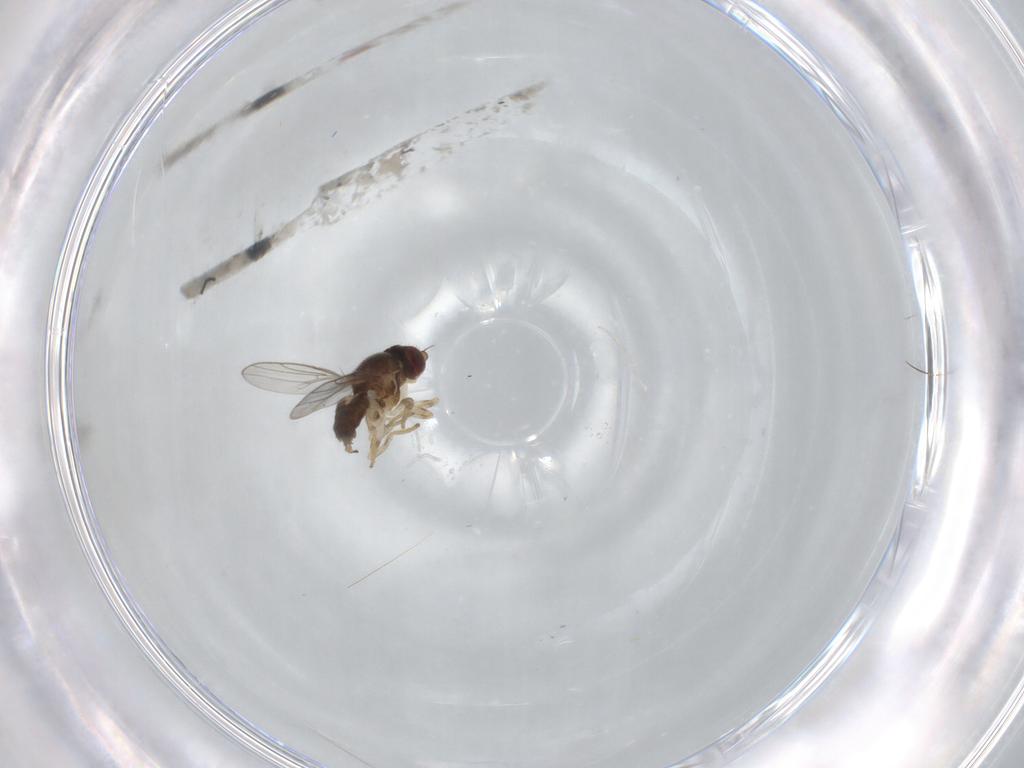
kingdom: Animalia
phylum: Arthropoda
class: Insecta
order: Diptera
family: Chloropidae
